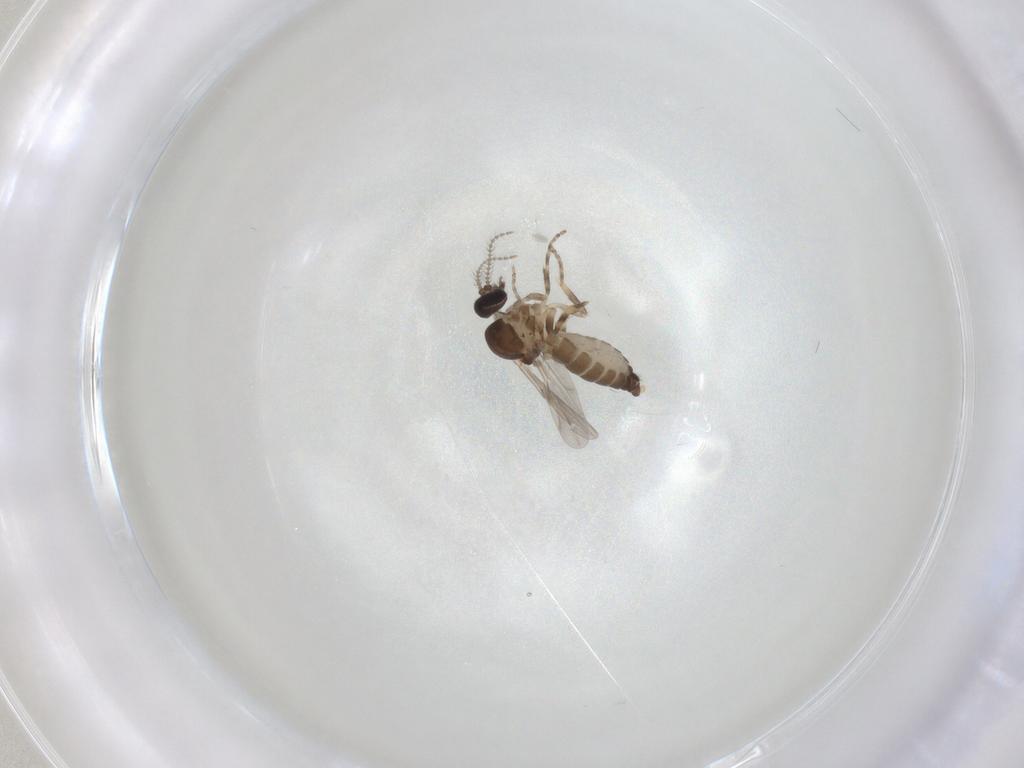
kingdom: Animalia
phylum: Arthropoda
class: Insecta
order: Diptera
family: Ceratopogonidae
